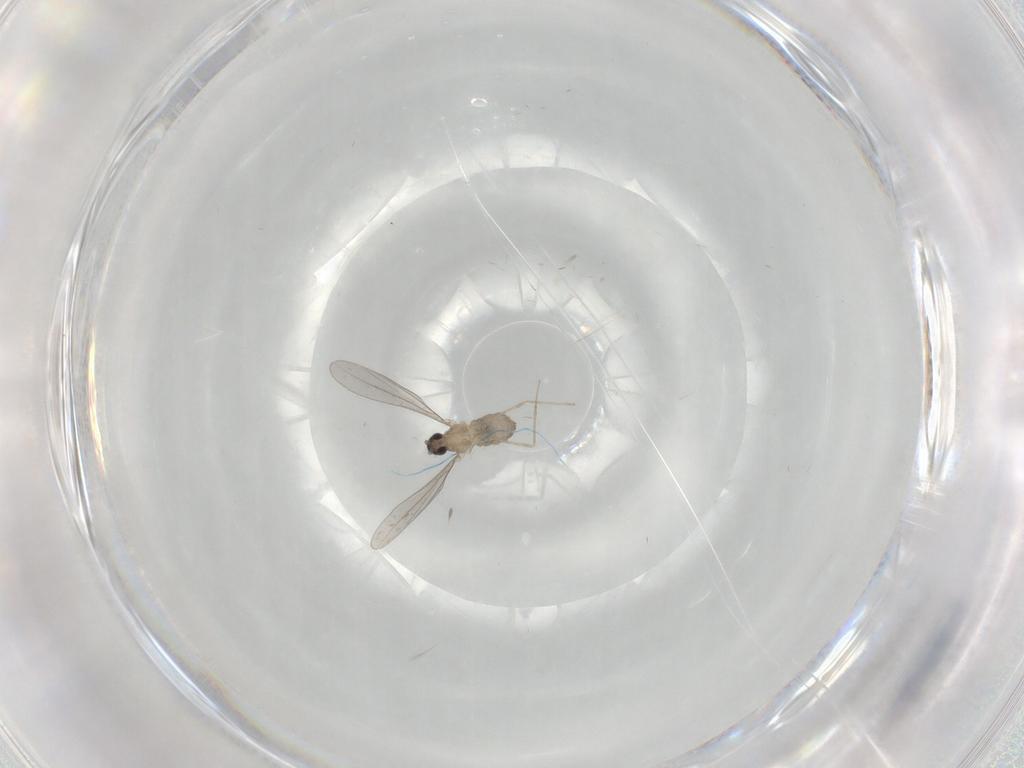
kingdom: Animalia
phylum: Arthropoda
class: Insecta
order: Diptera
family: Cecidomyiidae
